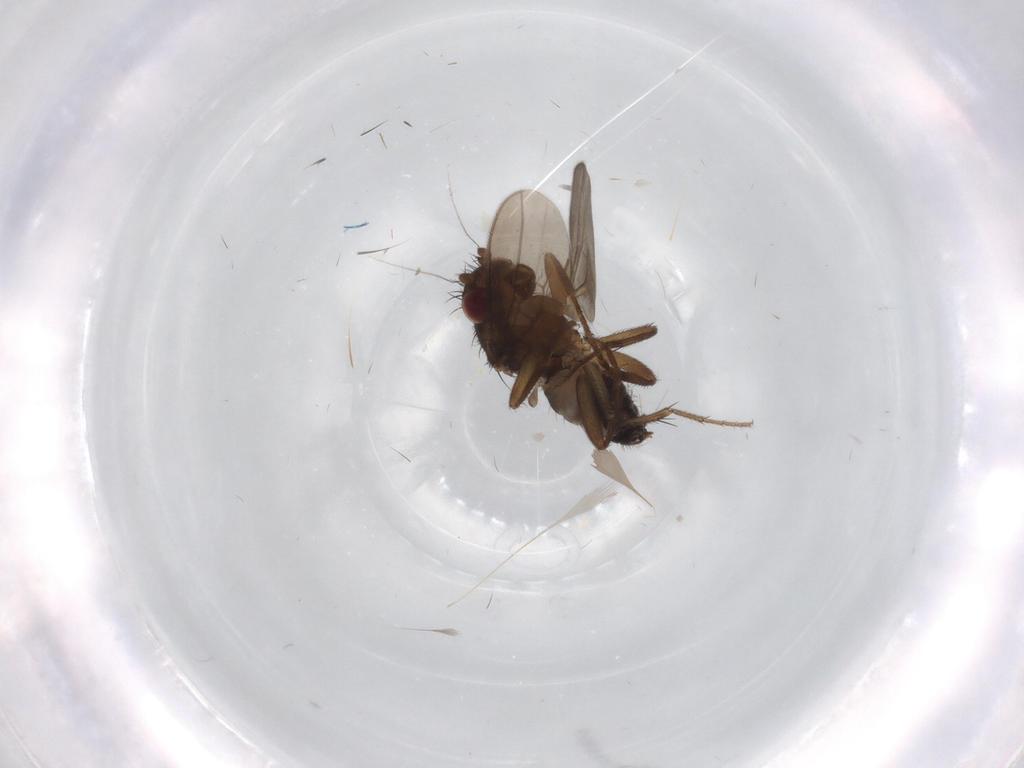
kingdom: Animalia
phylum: Arthropoda
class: Insecta
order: Diptera
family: Sphaeroceridae
